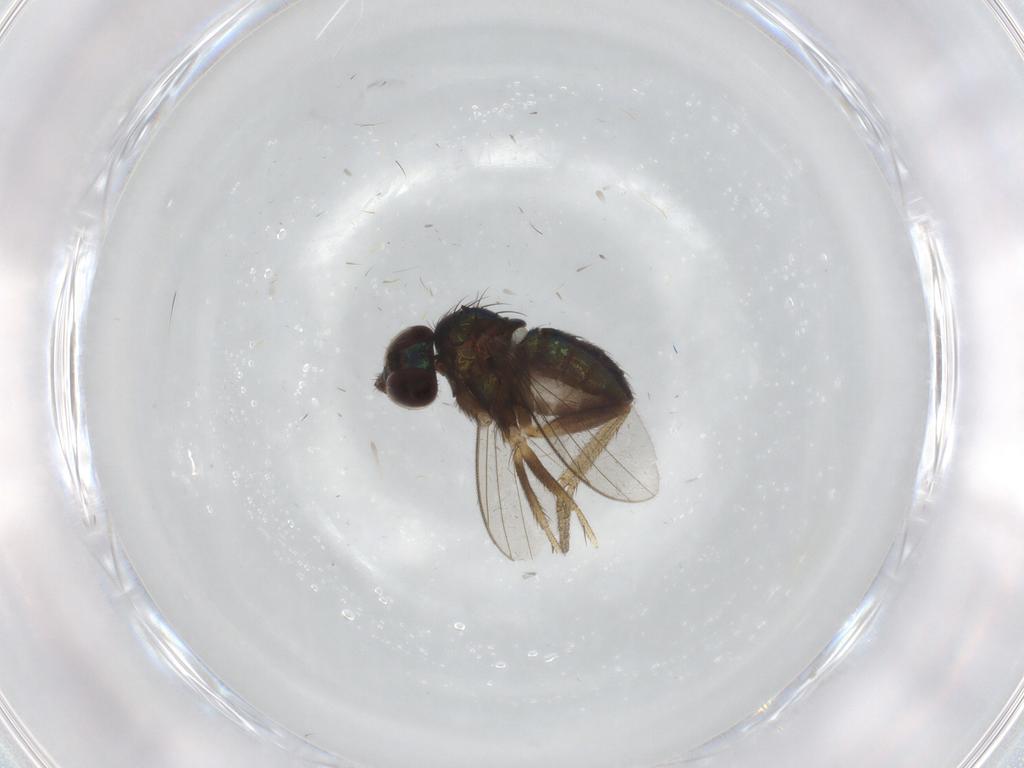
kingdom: Animalia
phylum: Arthropoda
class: Insecta
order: Diptera
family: Dolichopodidae
